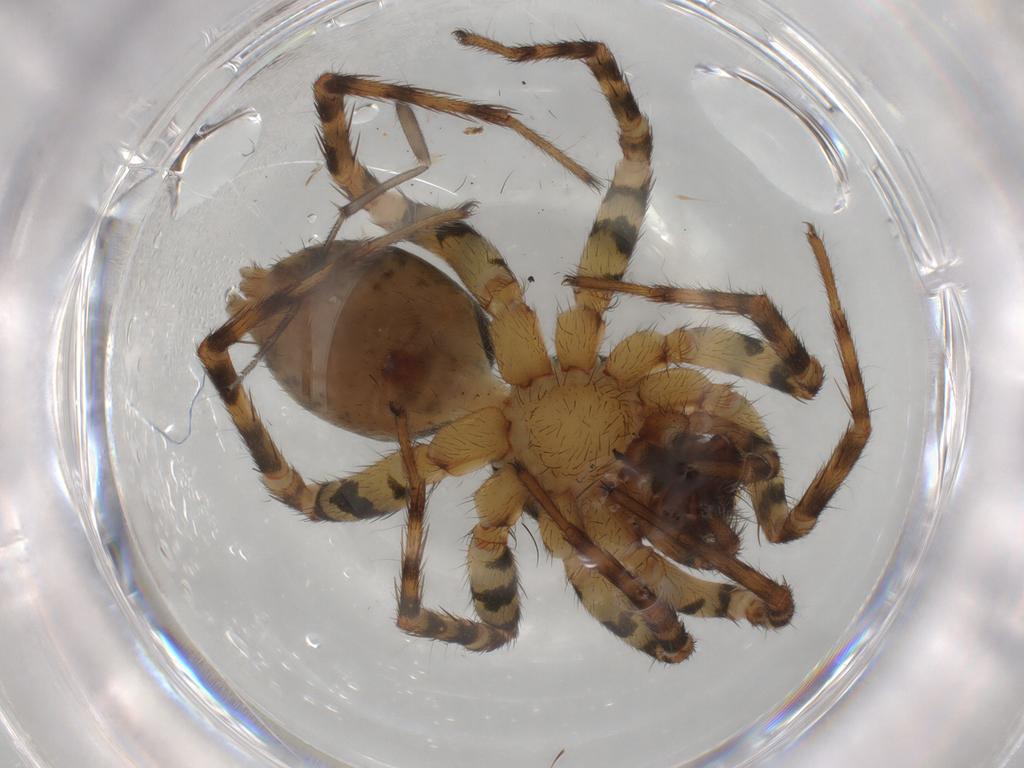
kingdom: Animalia
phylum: Arthropoda
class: Arachnida
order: Araneae
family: Lycosidae
